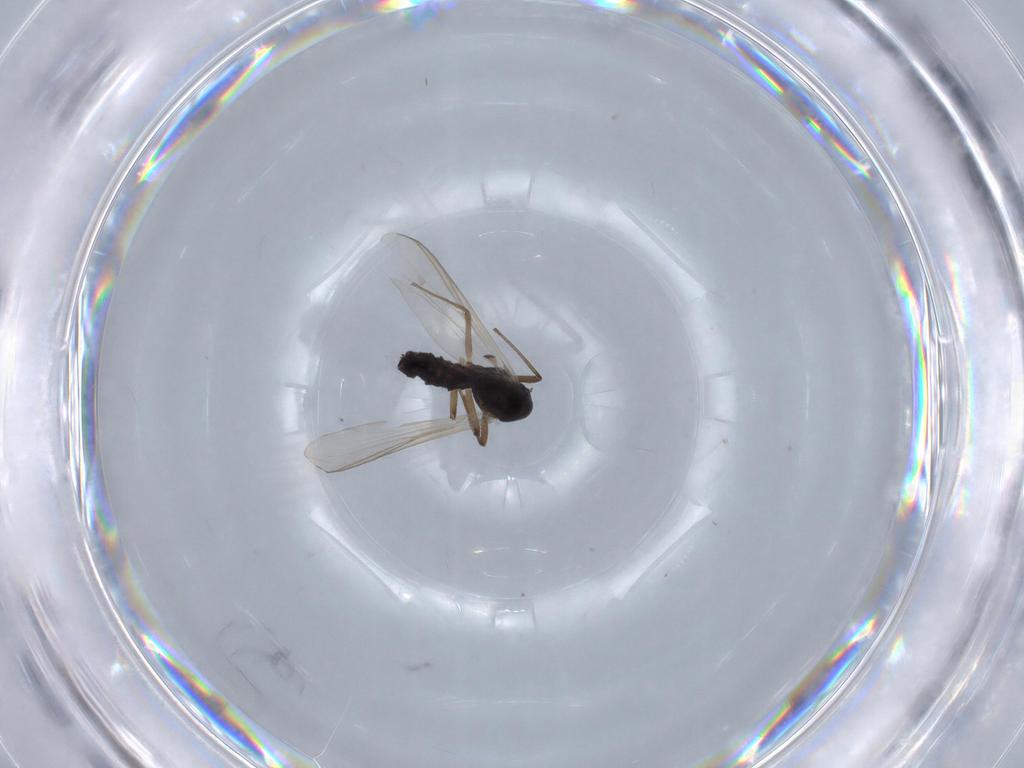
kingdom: Animalia
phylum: Arthropoda
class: Insecta
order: Diptera
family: Chironomidae
